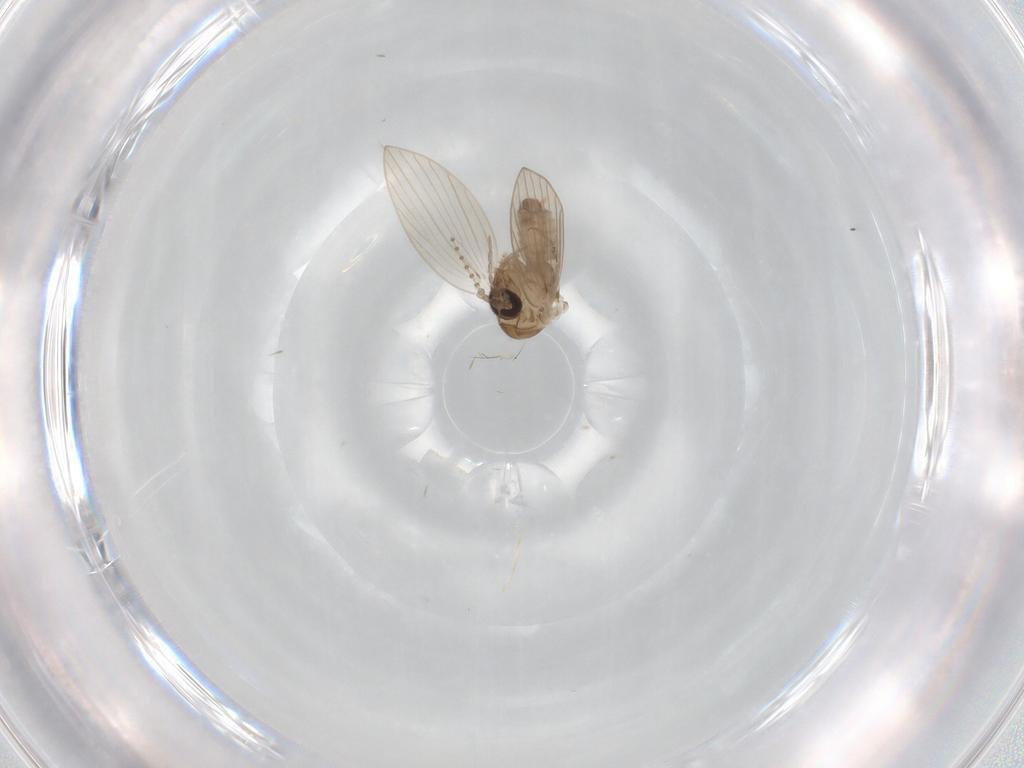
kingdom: Animalia
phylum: Arthropoda
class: Insecta
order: Diptera
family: Psychodidae
